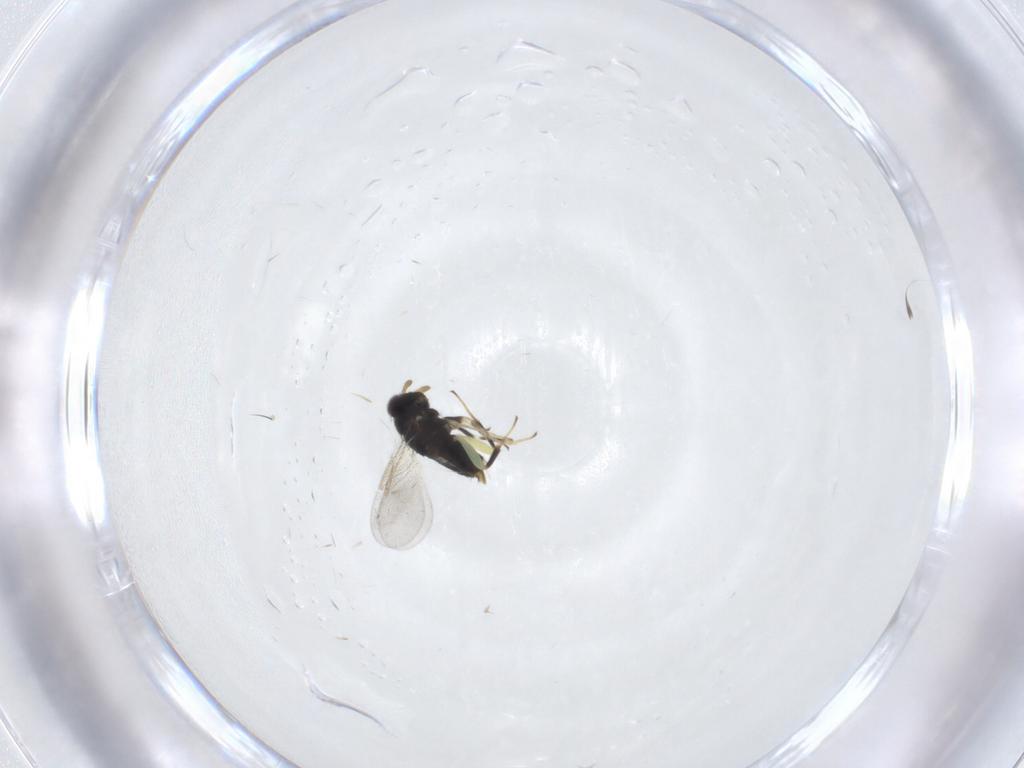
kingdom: Animalia
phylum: Arthropoda
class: Insecta
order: Hymenoptera
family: Aphelinidae
